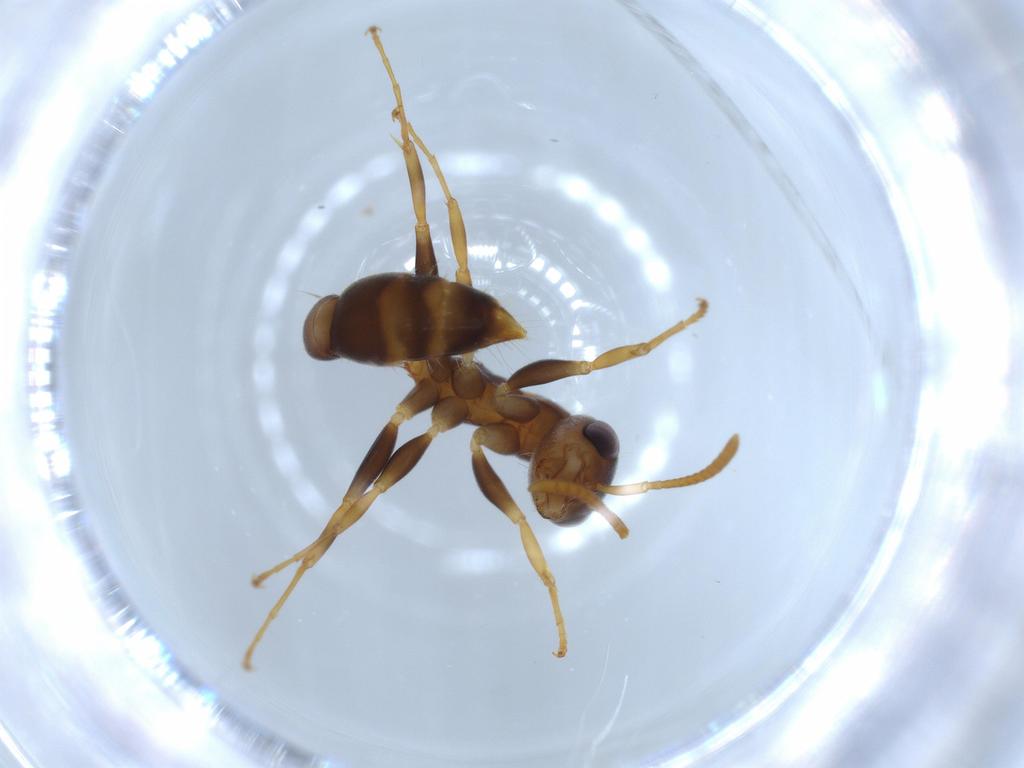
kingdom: Animalia
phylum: Arthropoda
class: Insecta
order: Hymenoptera
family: Formicidae
